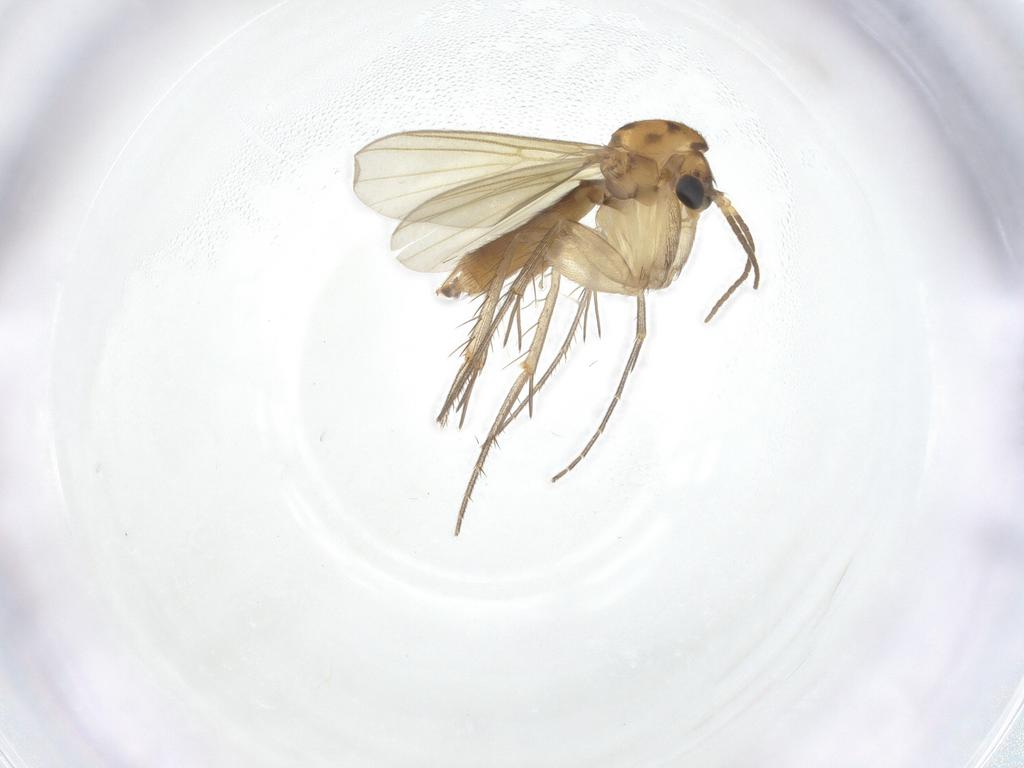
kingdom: Animalia
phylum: Arthropoda
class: Insecta
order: Diptera
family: Mycetophilidae
